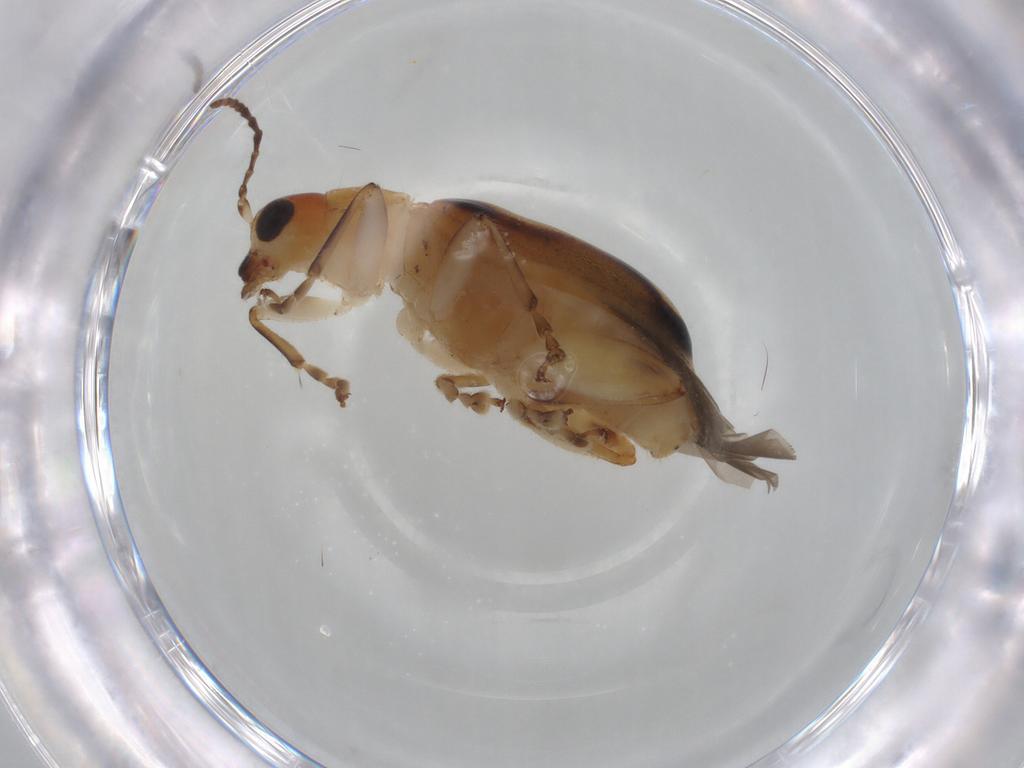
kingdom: Animalia
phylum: Arthropoda
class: Insecta
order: Coleoptera
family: Chrysomelidae
